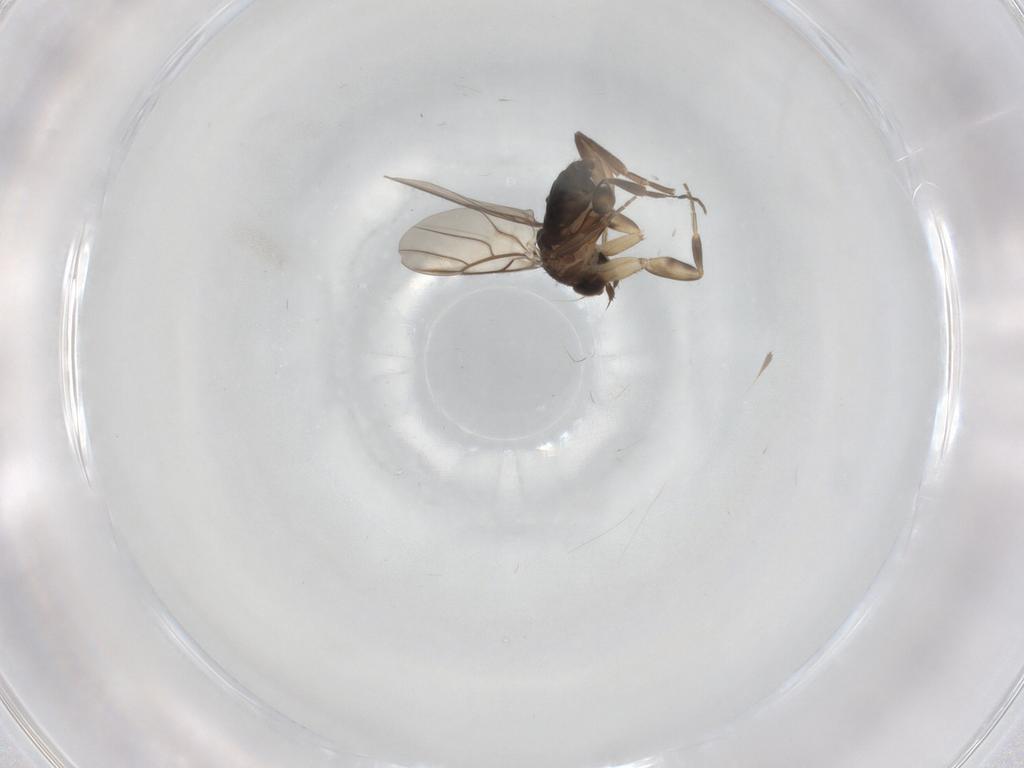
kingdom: Animalia
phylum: Arthropoda
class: Insecta
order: Diptera
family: Phoridae
